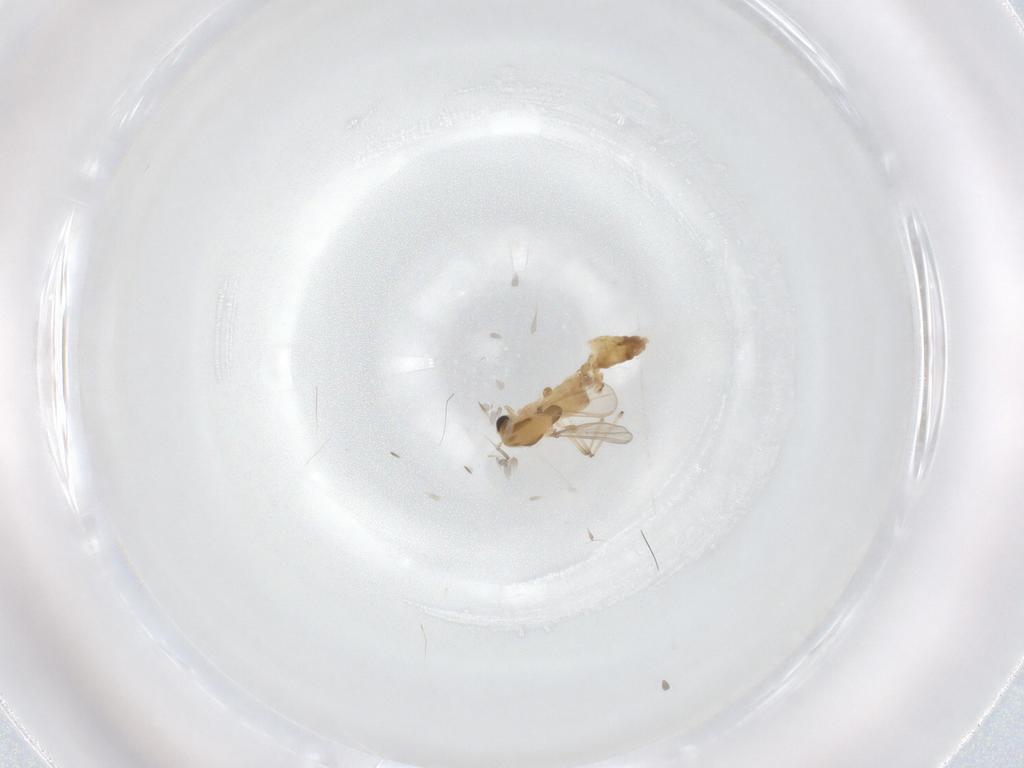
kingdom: Animalia
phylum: Arthropoda
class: Insecta
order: Diptera
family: Chironomidae
